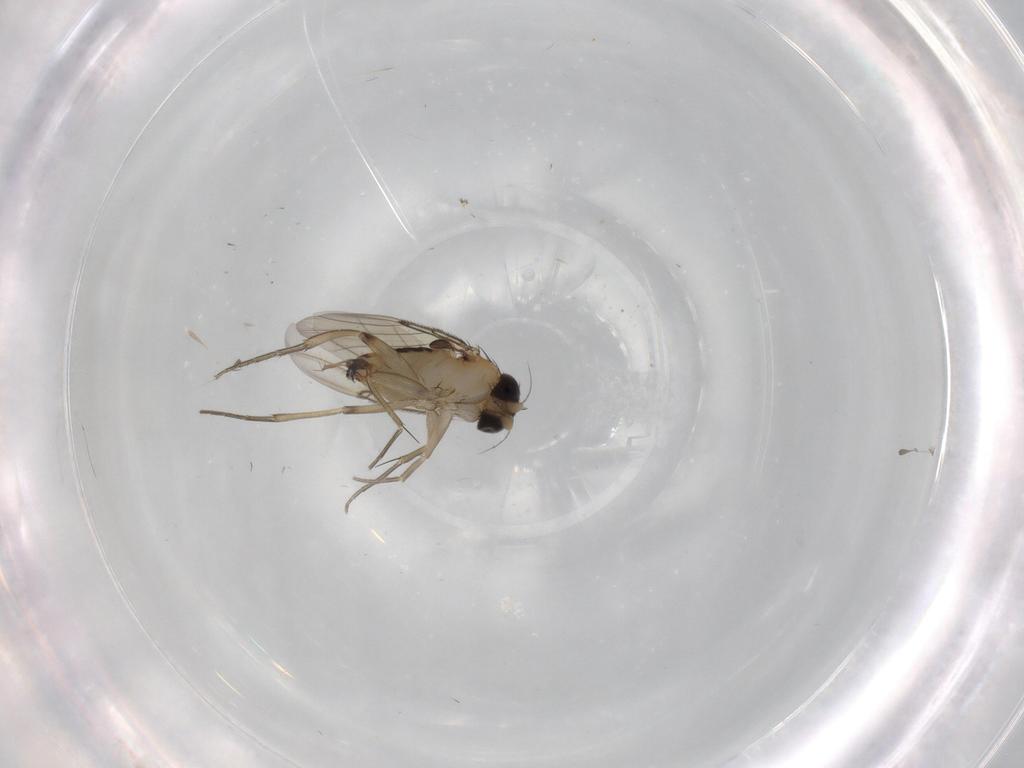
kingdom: Animalia
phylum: Arthropoda
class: Insecta
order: Diptera
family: Phoridae
